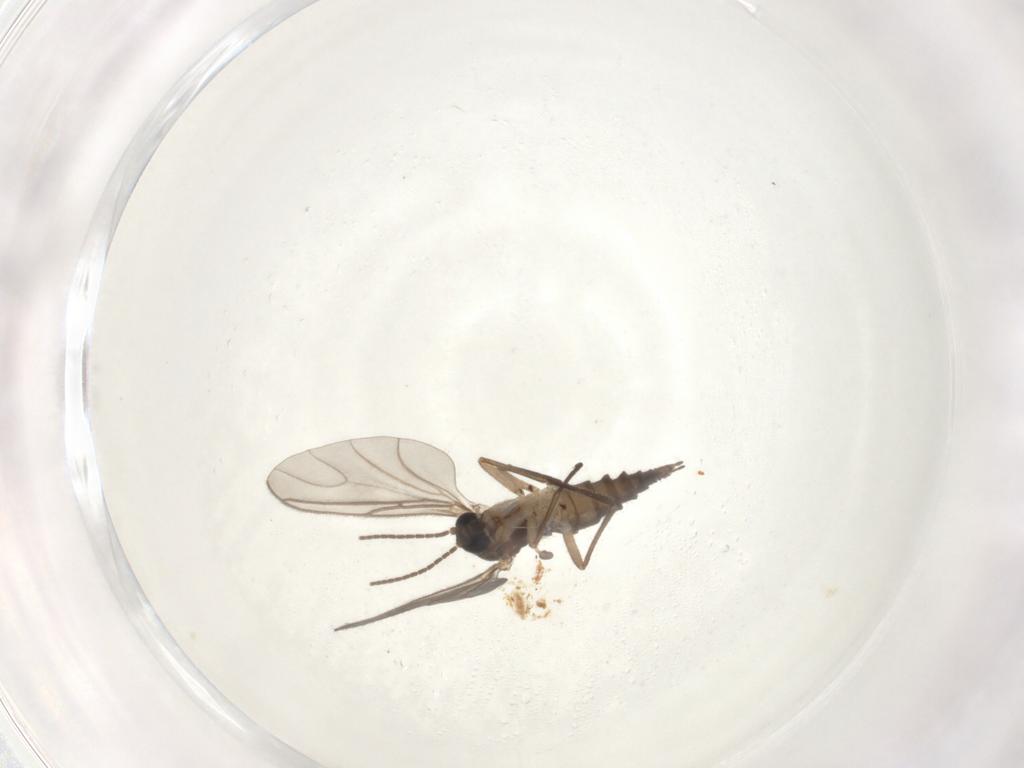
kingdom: Animalia
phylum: Arthropoda
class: Insecta
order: Diptera
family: Sciaridae
